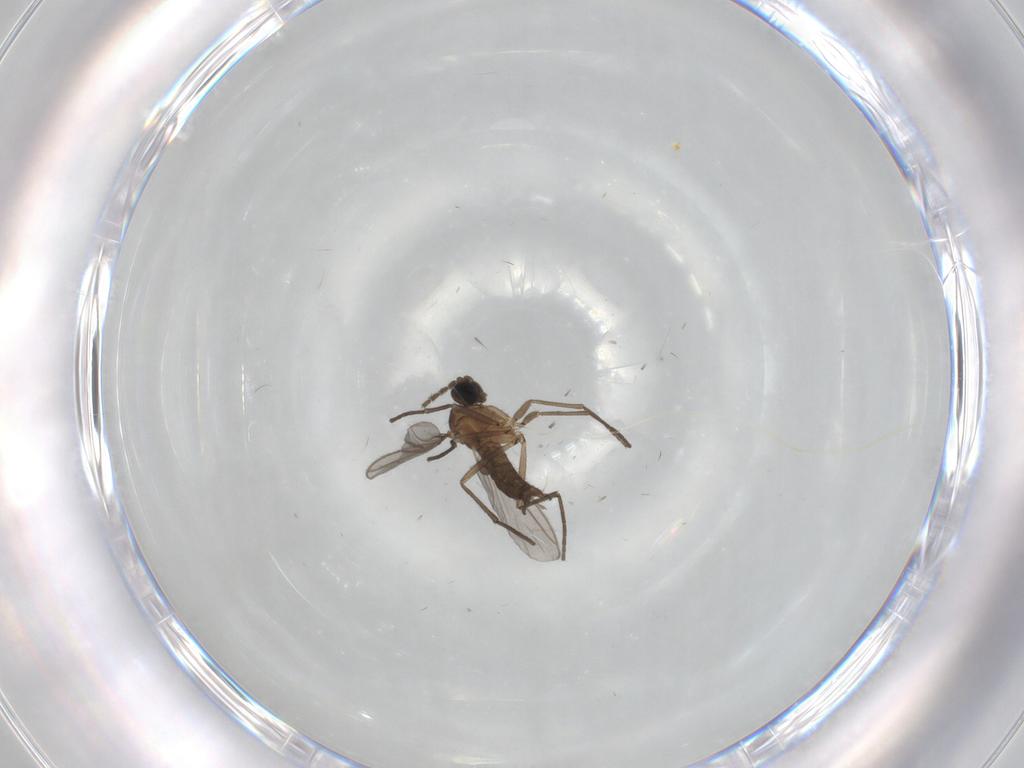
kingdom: Animalia
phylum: Arthropoda
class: Insecta
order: Diptera
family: Sciaridae
